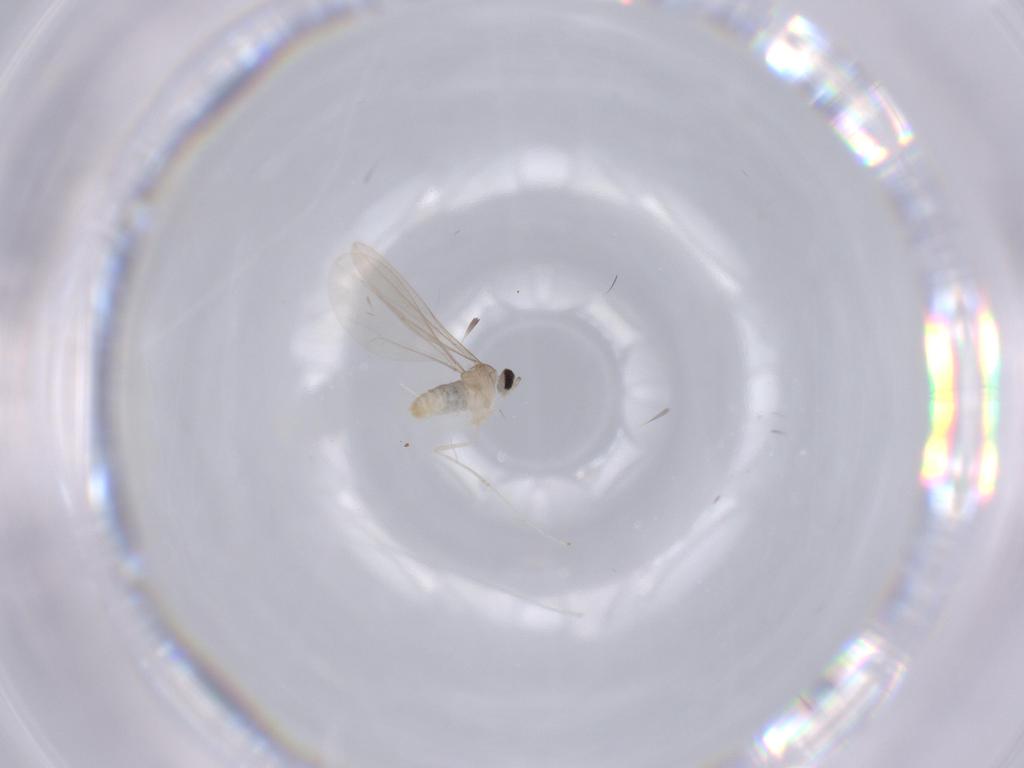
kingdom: Animalia
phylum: Arthropoda
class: Insecta
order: Diptera
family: Cecidomyiidae
